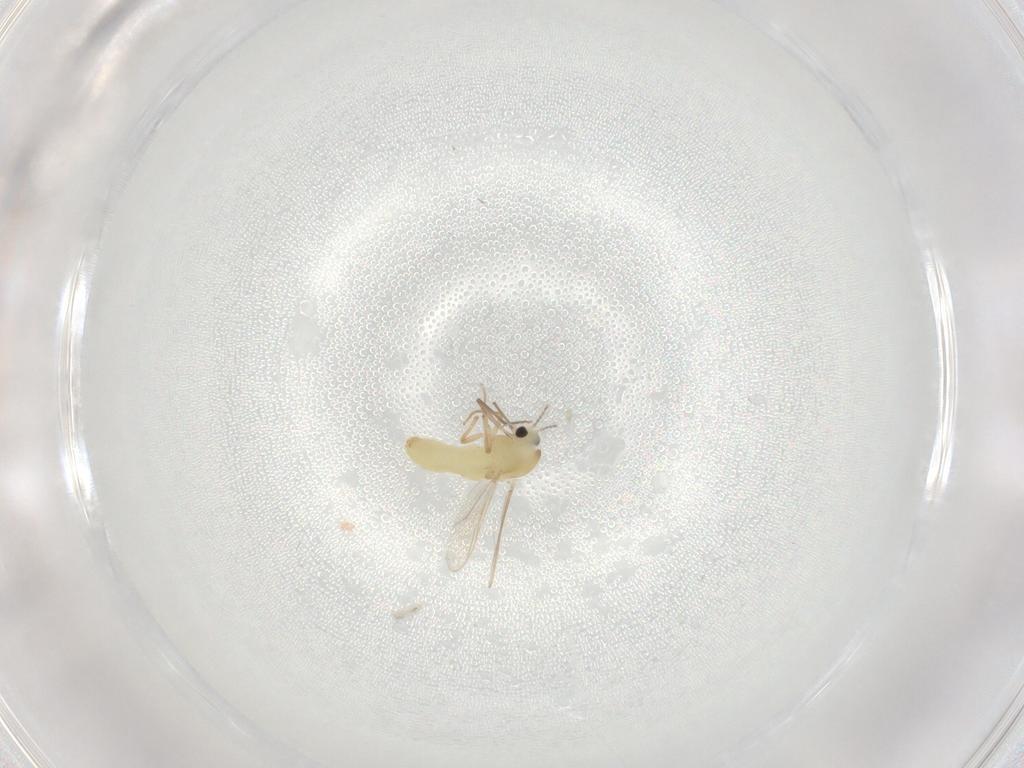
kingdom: Animalia
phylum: Arthropoda
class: Insecta
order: Diptera
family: Chironomidae
